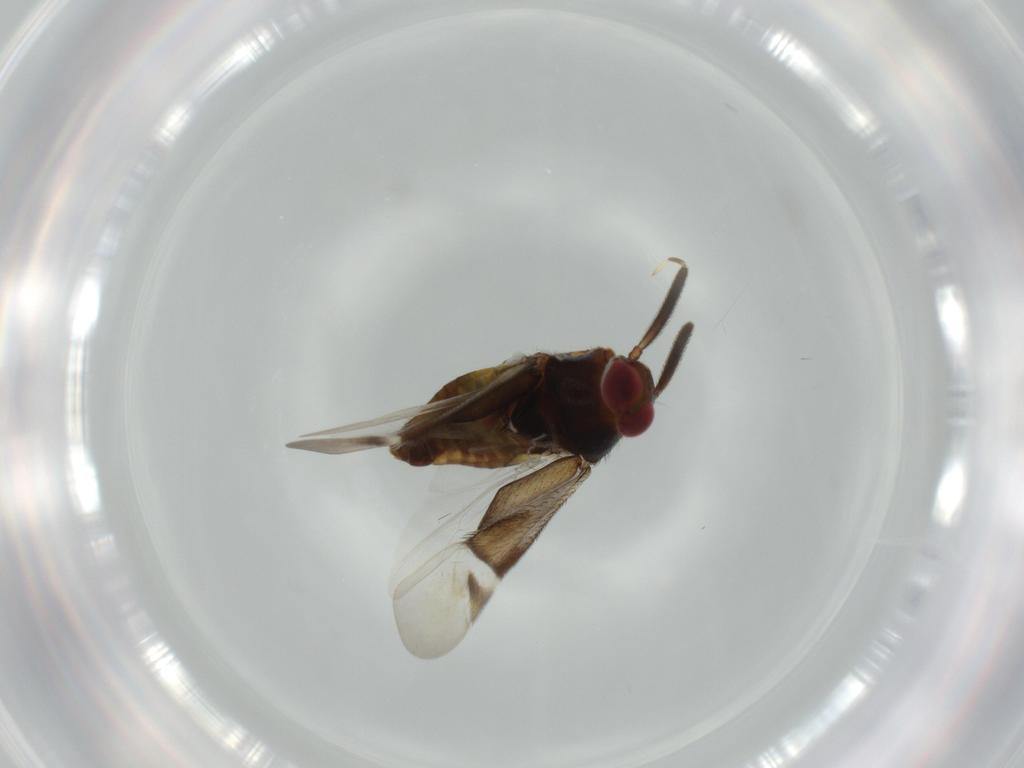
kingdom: Animalia
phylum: Arthropoda
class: Insecta
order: Hemiptera
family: Miridae
